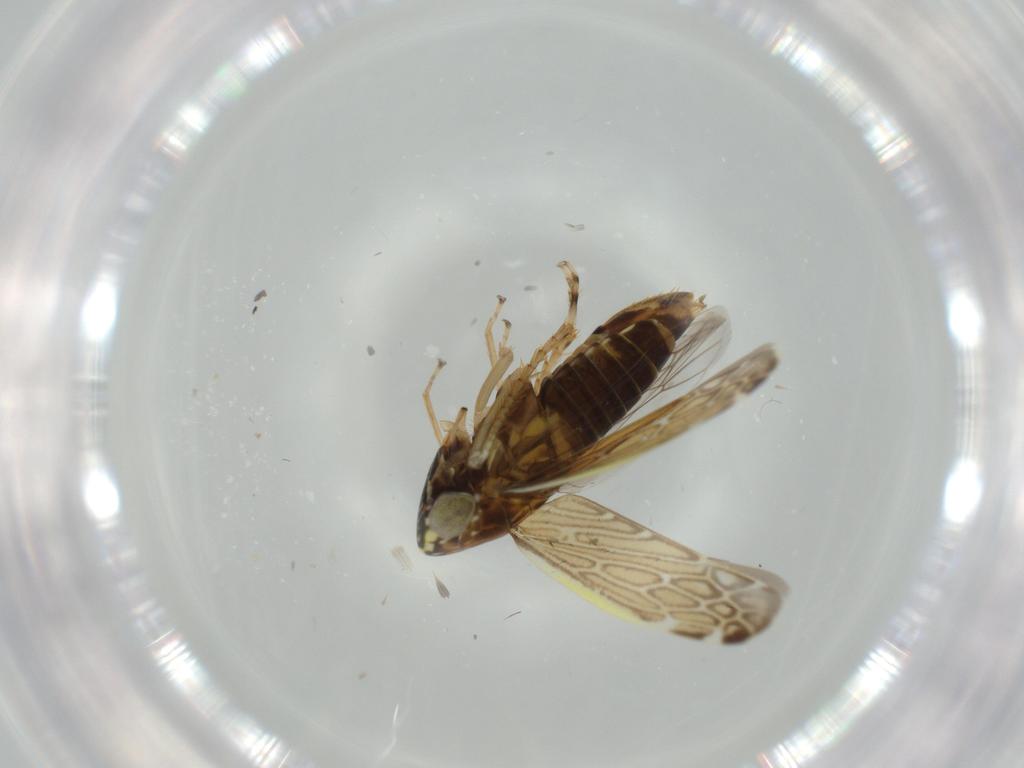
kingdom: Animalia
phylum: Arthropoda
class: Insecta
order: Hemiptera
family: Cicadellidae
